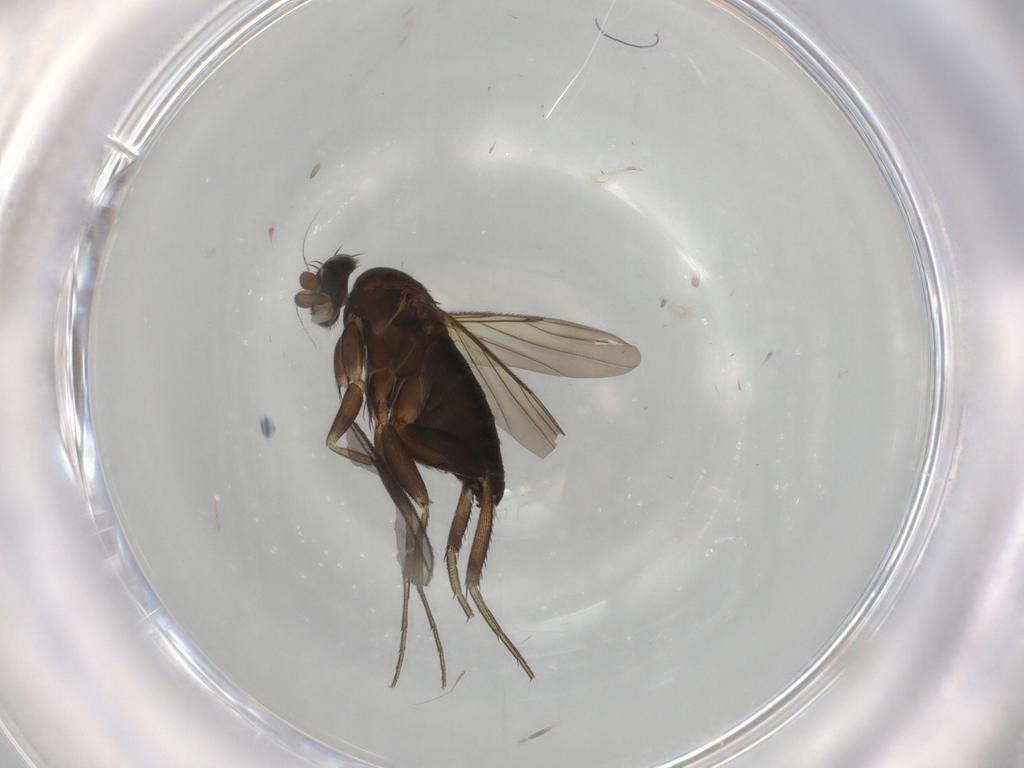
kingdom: Animalia
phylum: Arthropoda
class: Insecta
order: Diptera
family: Phoridae
